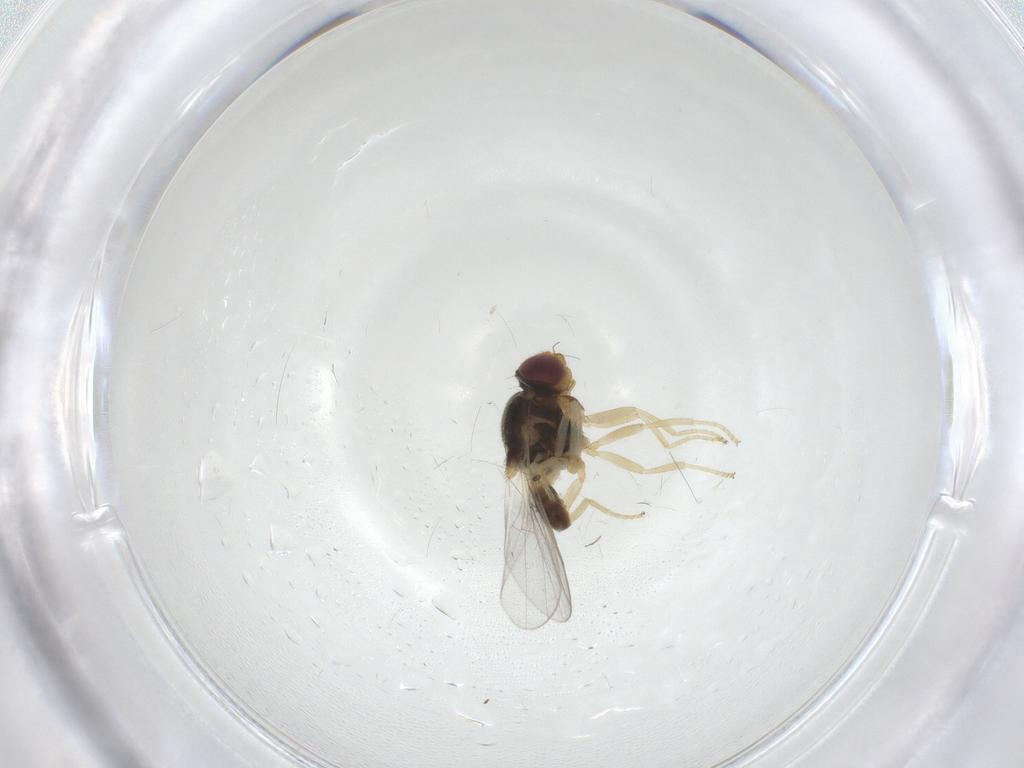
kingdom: Animalia
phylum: Arthropoda
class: Insecta
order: Diptera
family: Chloropidae
